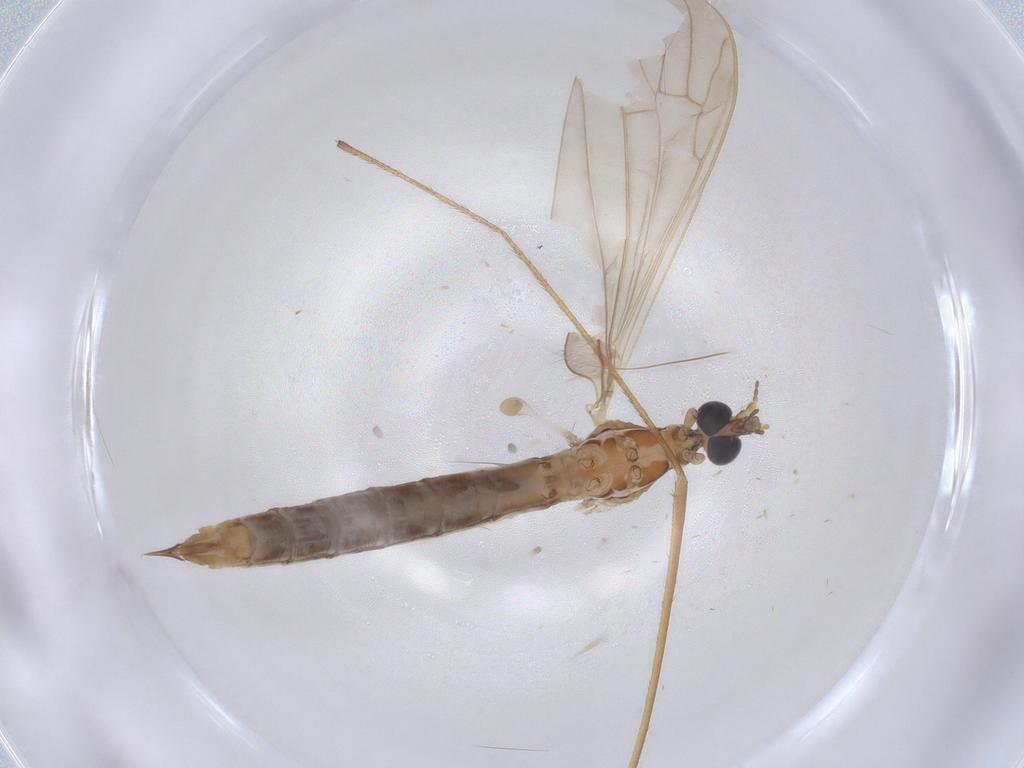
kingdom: Animalia
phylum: Arthropoda
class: Insecta
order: Diptera
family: Limoniidae
